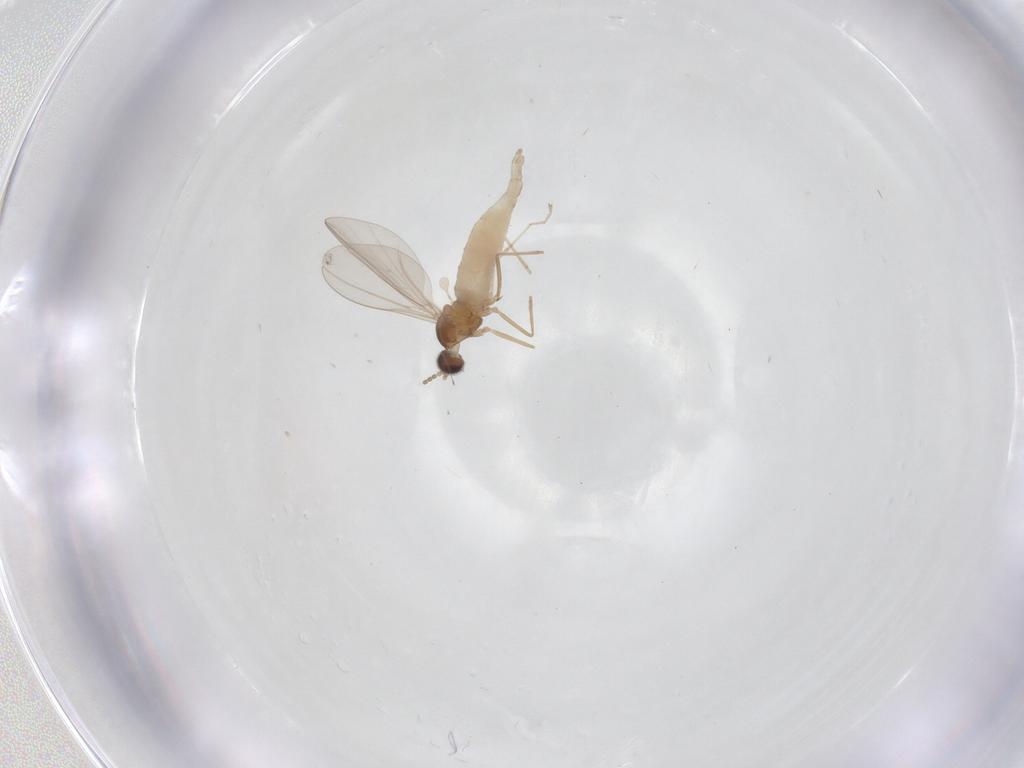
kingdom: Animalia
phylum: Arthropoda
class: Insecta
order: Diptera
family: Cecidomyiidae
